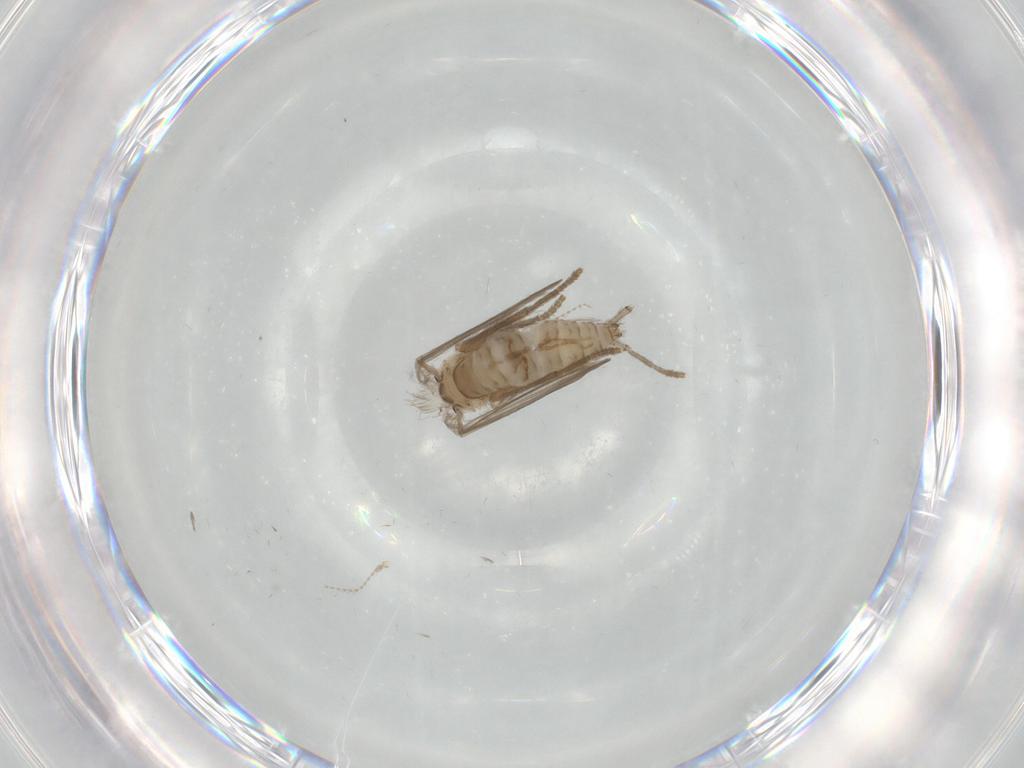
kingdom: Animalia
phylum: Arthropoda
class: Insecta
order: Diptera
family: Psychodidae
